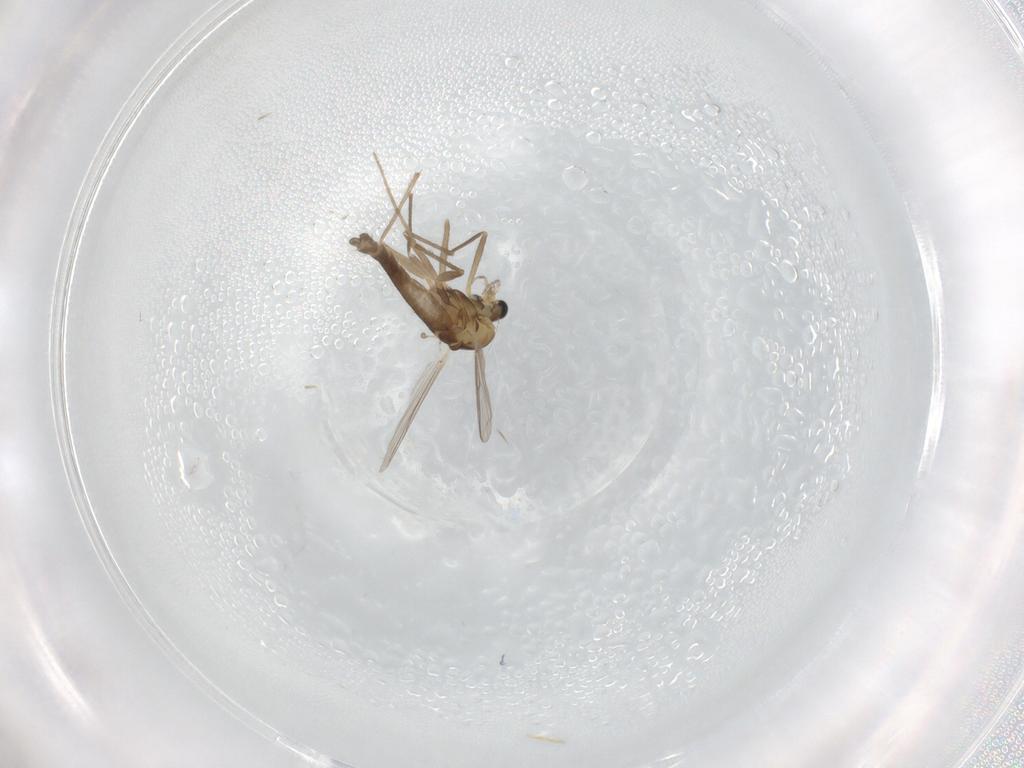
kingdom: Animalia
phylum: Arthropoda
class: Insecta
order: Diptera
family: Chironomidae
